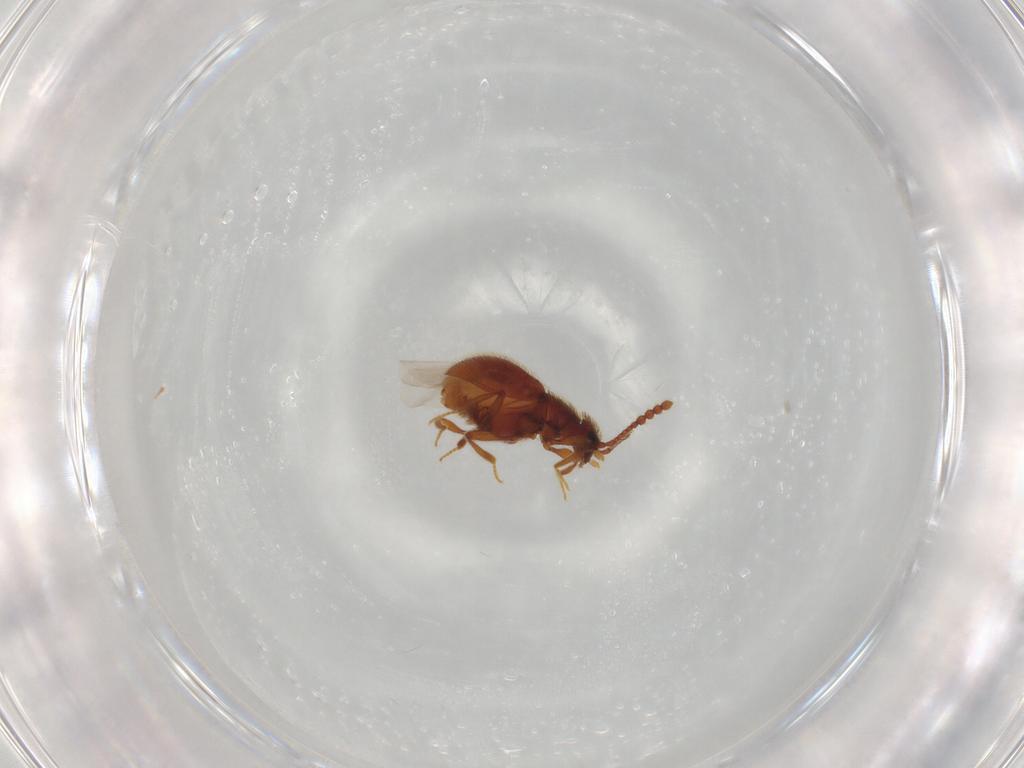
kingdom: Animalia
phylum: Arthropoda
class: Insecta
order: Coleoptera
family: Staphylinidae
